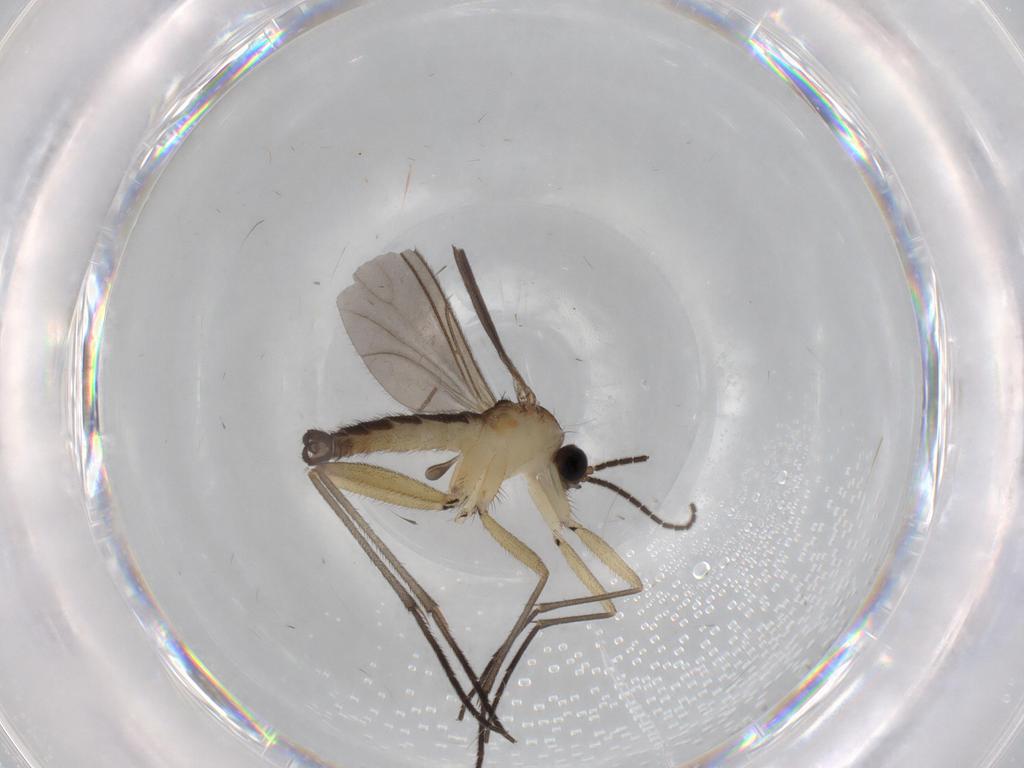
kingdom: Animalia
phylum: Arthropoda
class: Insecta
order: Diptera
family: Sciaridae
